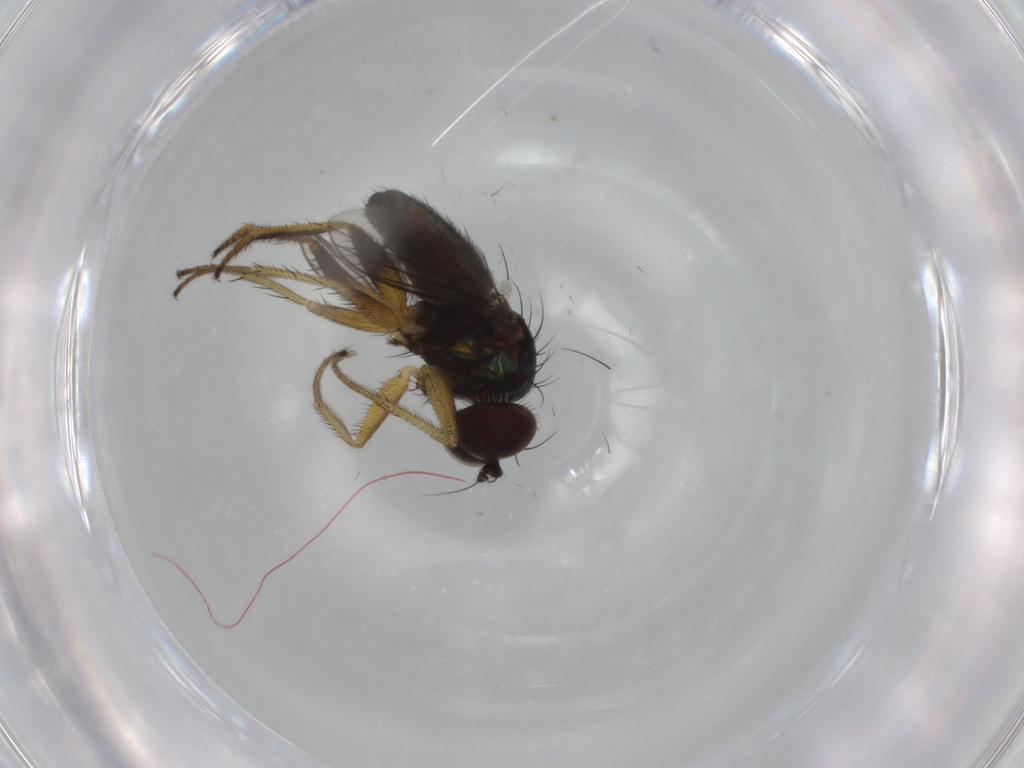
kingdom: Animalia
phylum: Arthropoda
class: Insecta
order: Diptera
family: Dolichopodidae
